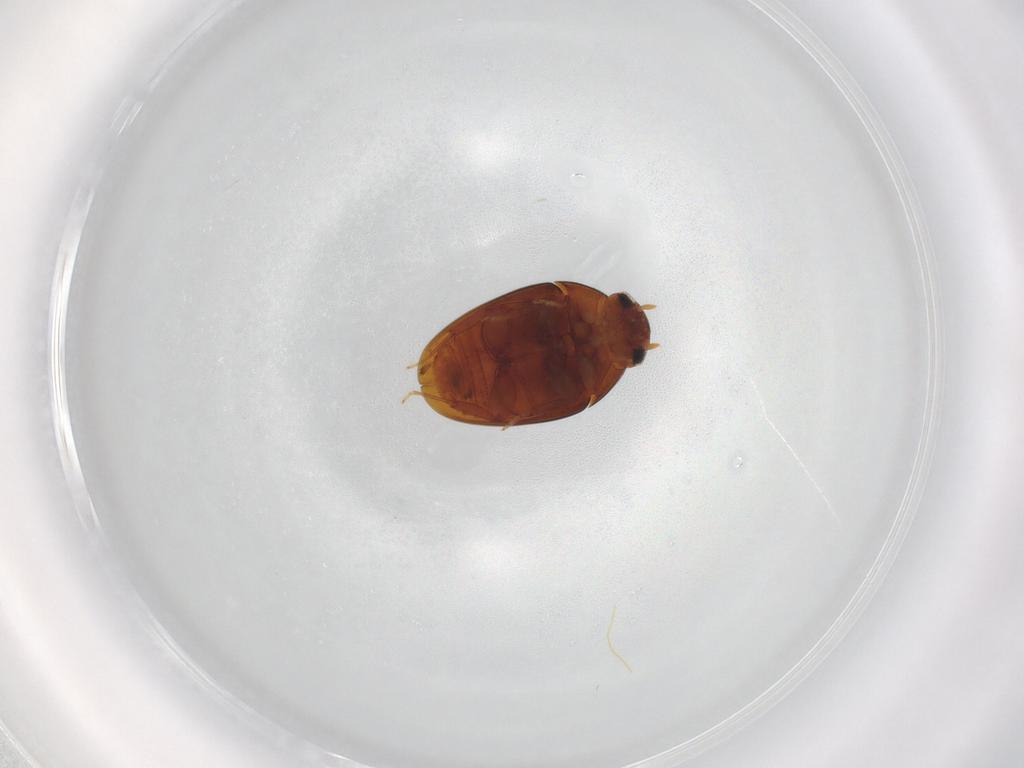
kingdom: Animalia
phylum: Arthropoda
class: Insecta
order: Coleoptera
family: Phalacridae
